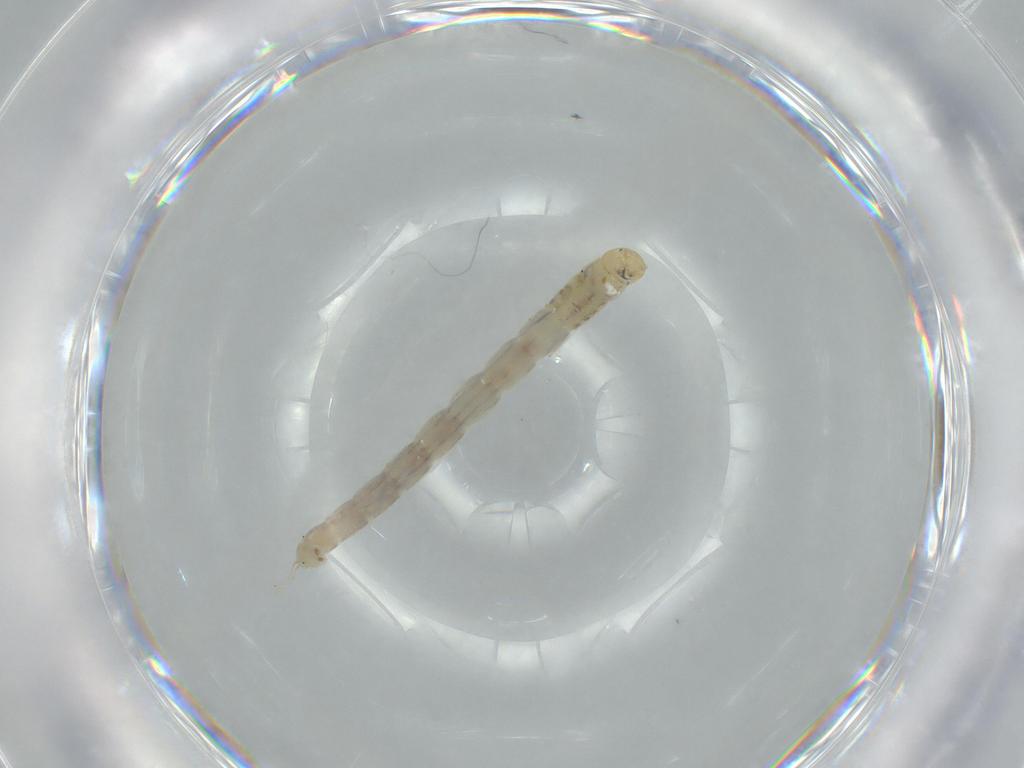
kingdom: Animalia
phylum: Arthropoda
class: Insecta
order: Diptera
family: Chironomidae
